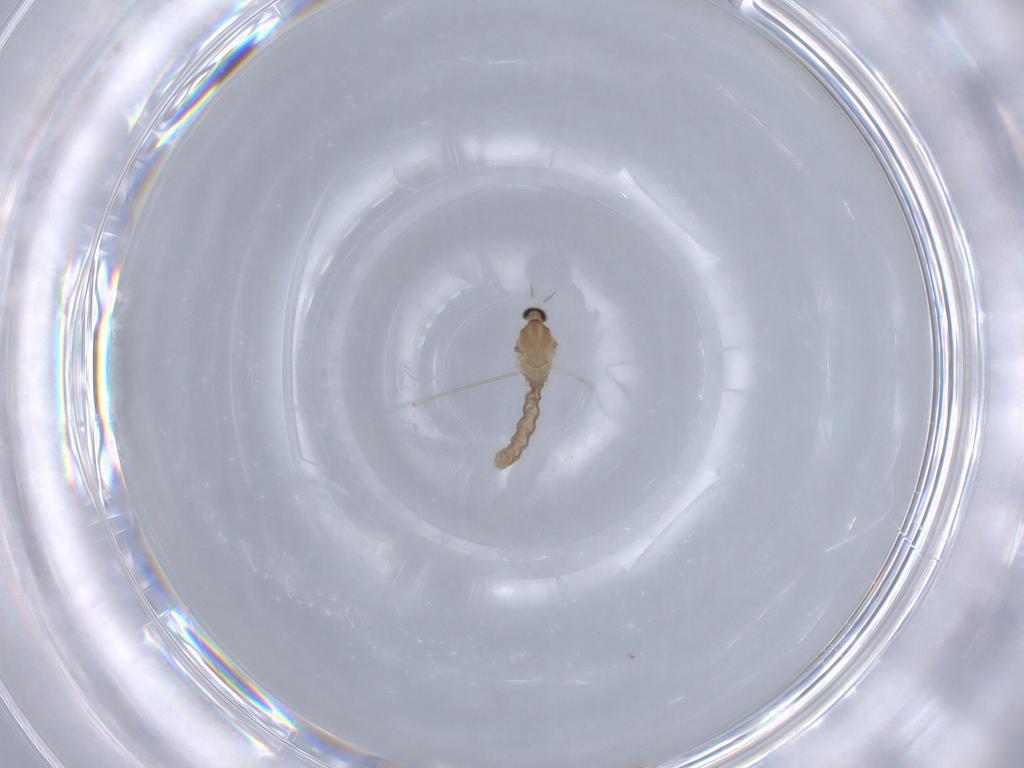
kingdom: Animalia
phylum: Arthropoda
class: Insecta
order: Diptera
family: Cecidomyiidae
